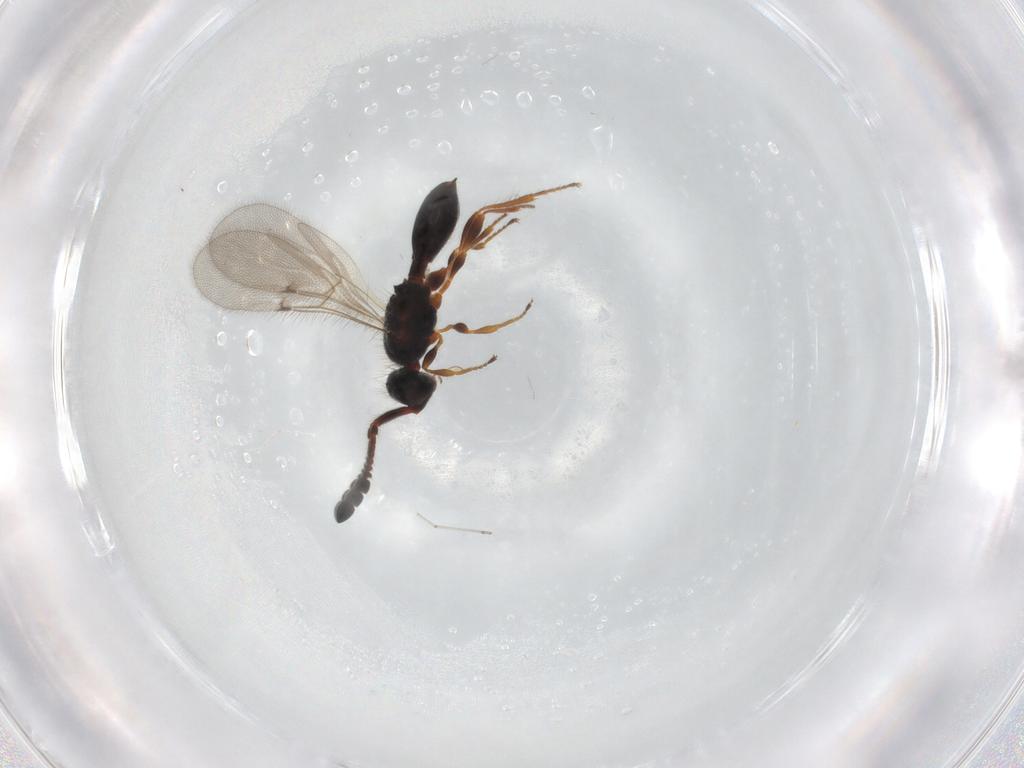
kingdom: Animalia
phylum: Arthropoda
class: Insecta
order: Hymenoptera
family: Diapriidae
